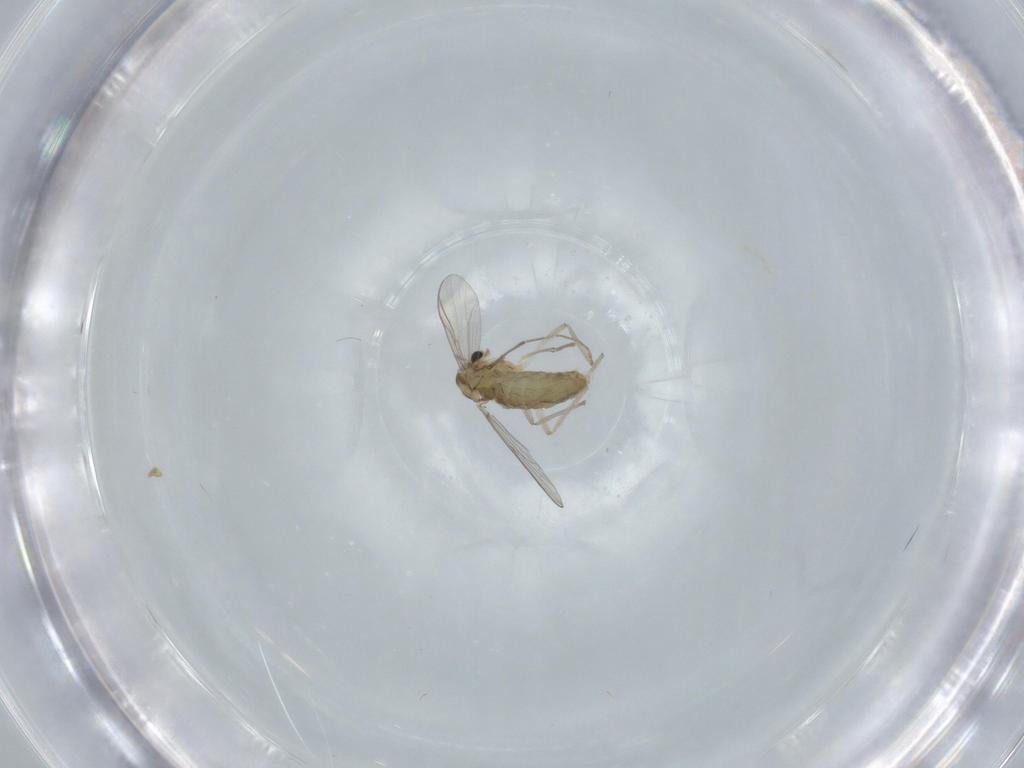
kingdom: Animalia
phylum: Arthropoda
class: Insecta
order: Diptera
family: Chironomidae
